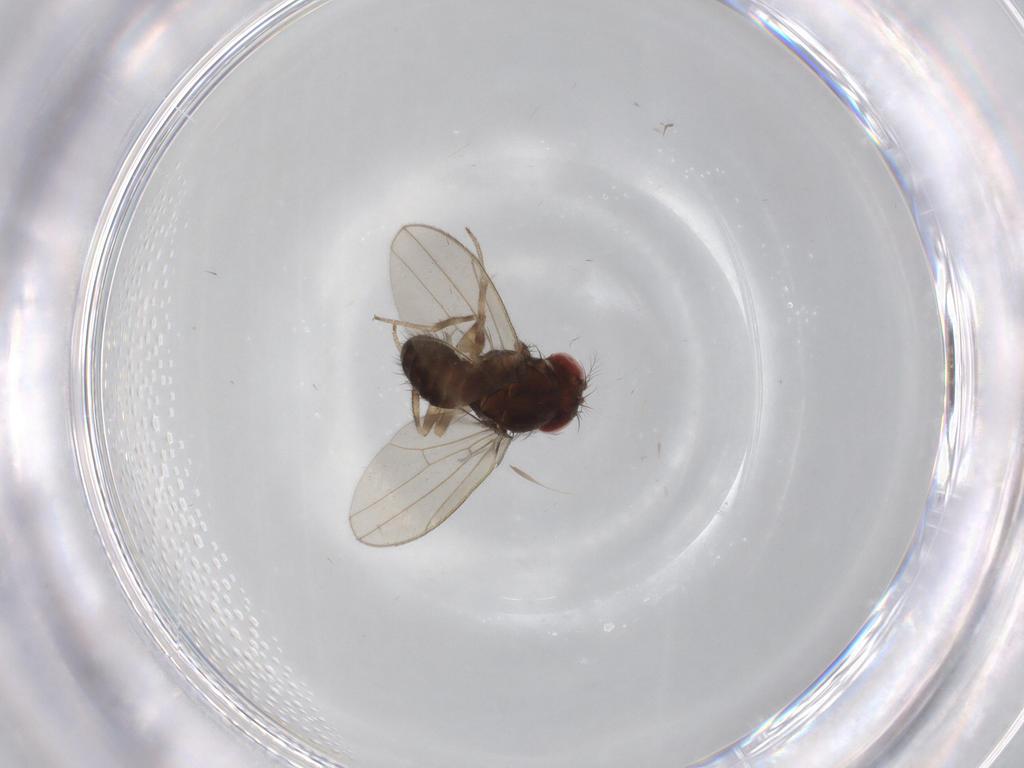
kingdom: Animalia
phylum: Arthropoda
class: Insecta
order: Diptera
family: Drosophilidae
